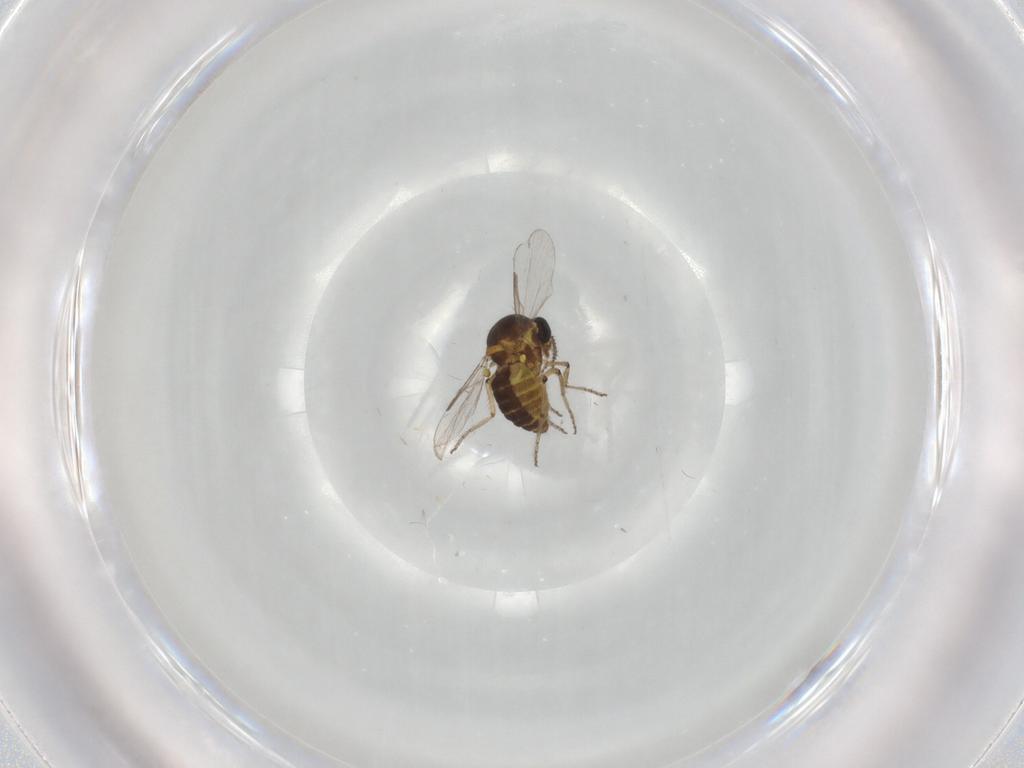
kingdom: Animalia
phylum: Arthropoda
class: Insecta
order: Diptera
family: Ceratopogonidae
